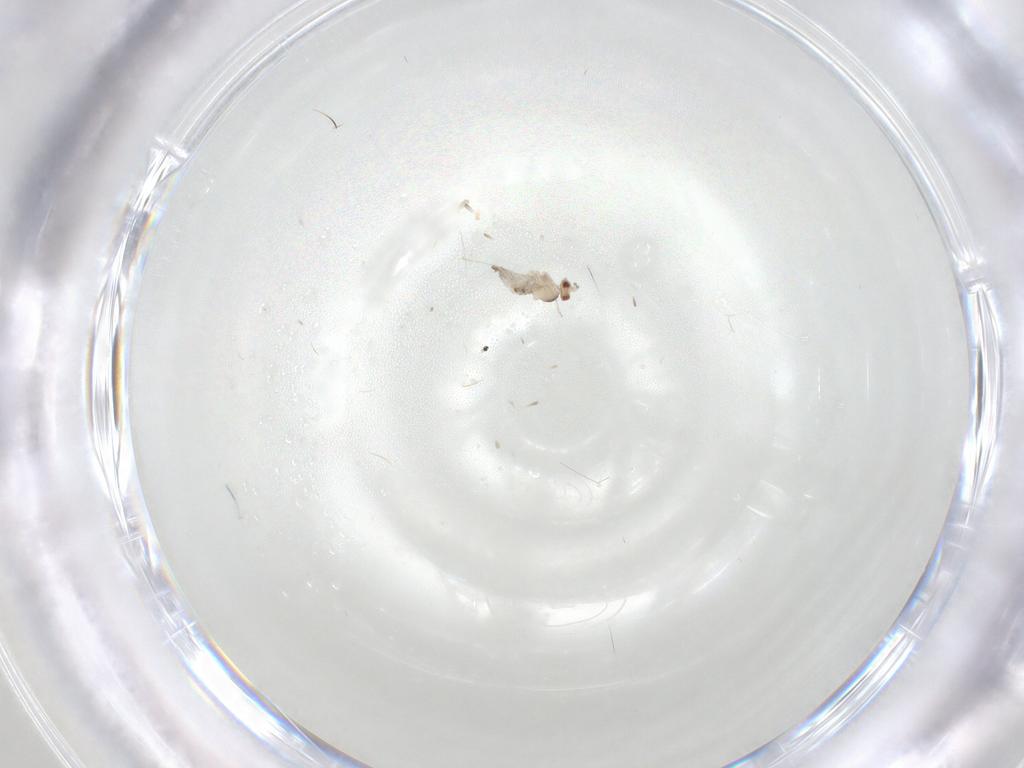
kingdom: Animalia
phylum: Arthropoda
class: Insecta
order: Diptera
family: Cecidomyiidae
